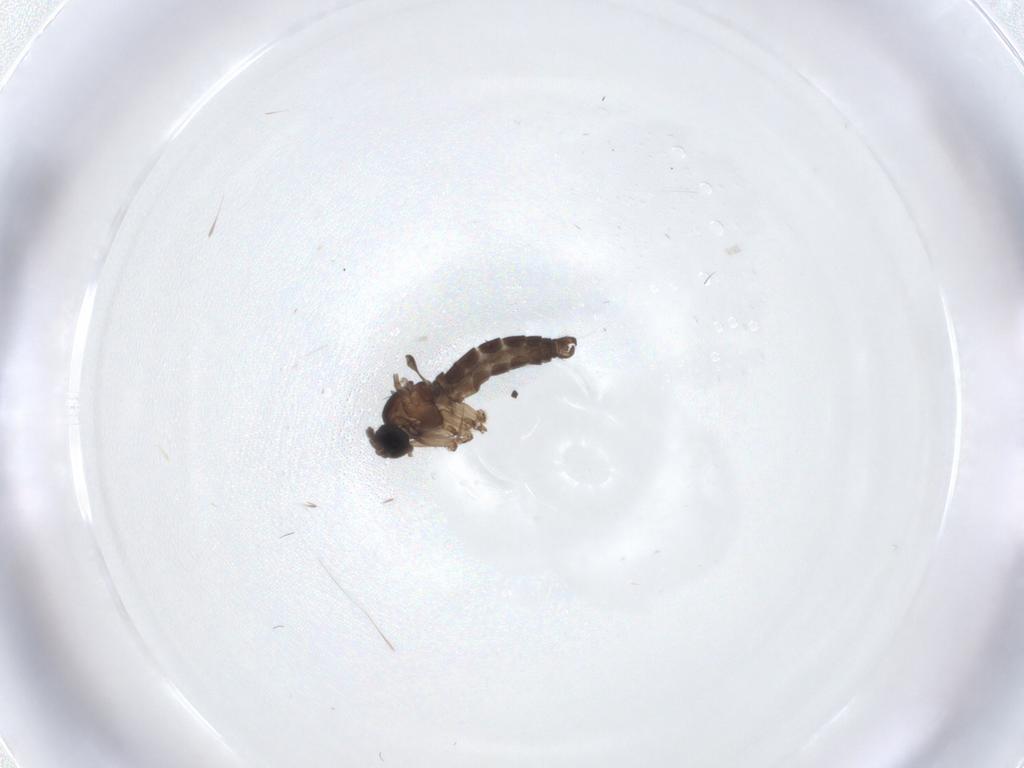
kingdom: Animalia
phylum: Arthropoda
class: Insecta
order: Diptera
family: Sciaridae
